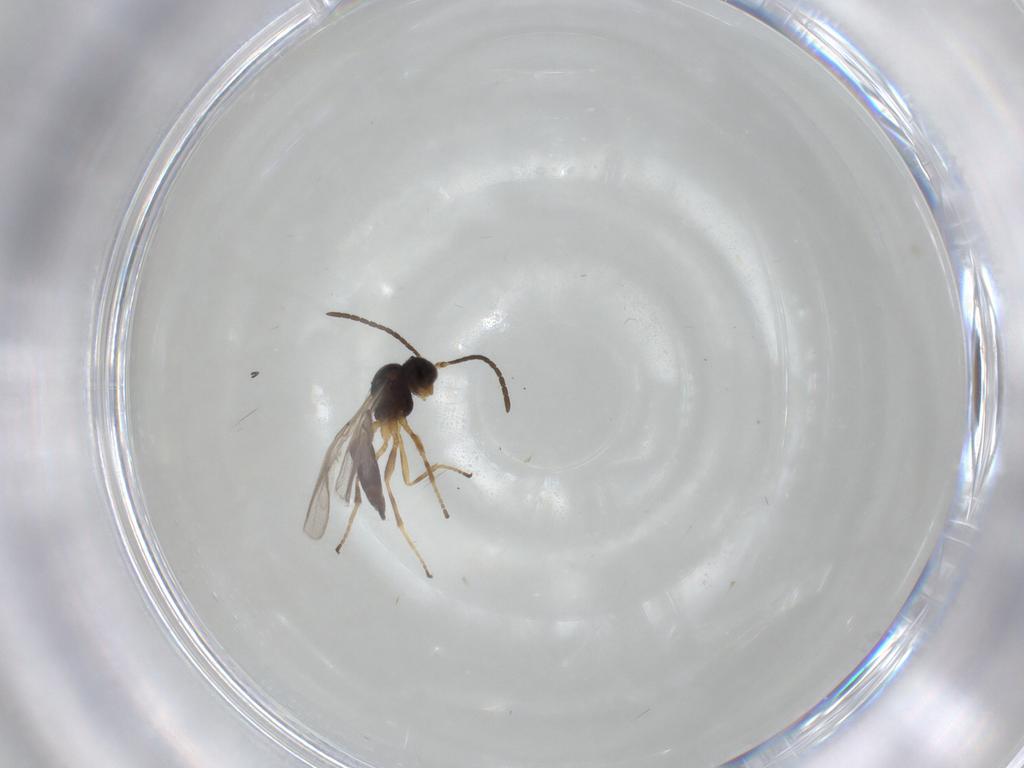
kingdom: Animalia
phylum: Arthropoda
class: Insecta
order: Hymenoptera
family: Braconidae
